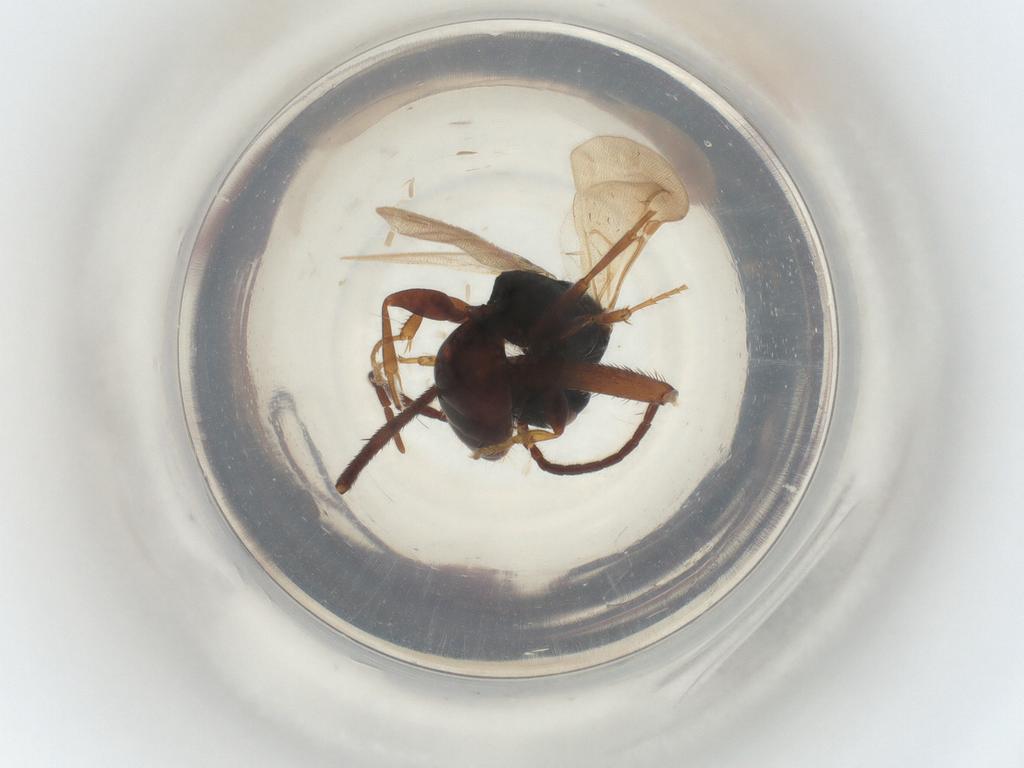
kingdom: Animalia
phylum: Arthropoda
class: Insecta
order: Diptera
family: Tachinidae
